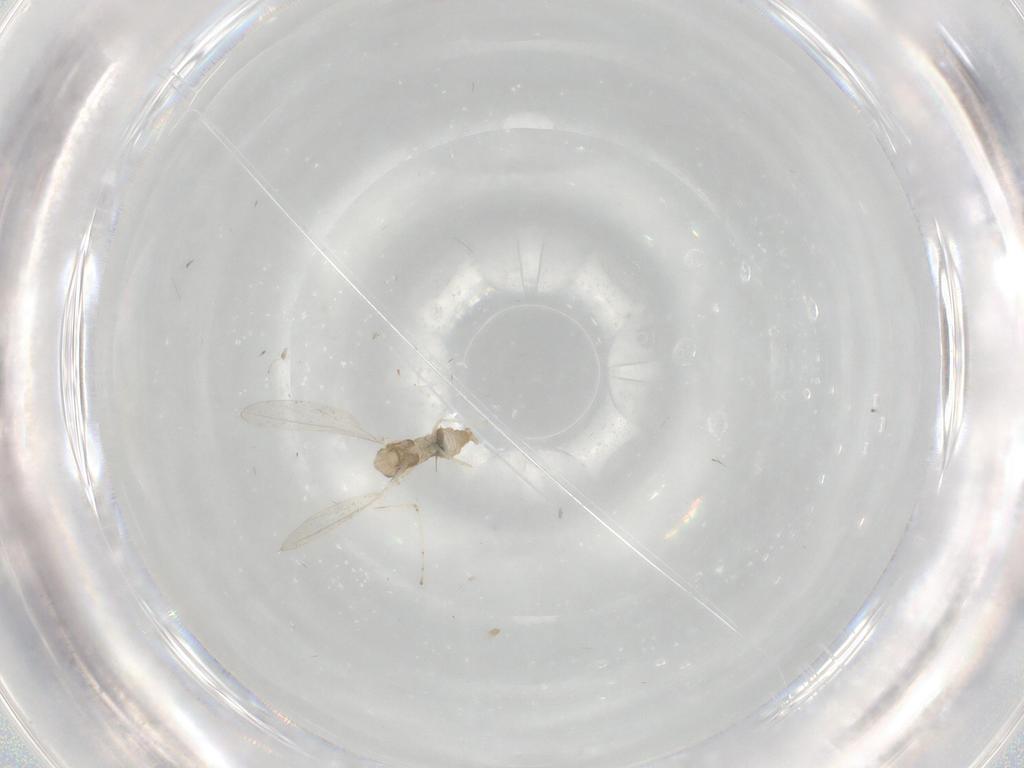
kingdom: Animalia
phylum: Arthropoda
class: Insecta
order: Diptera
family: Cecidomyiidae
